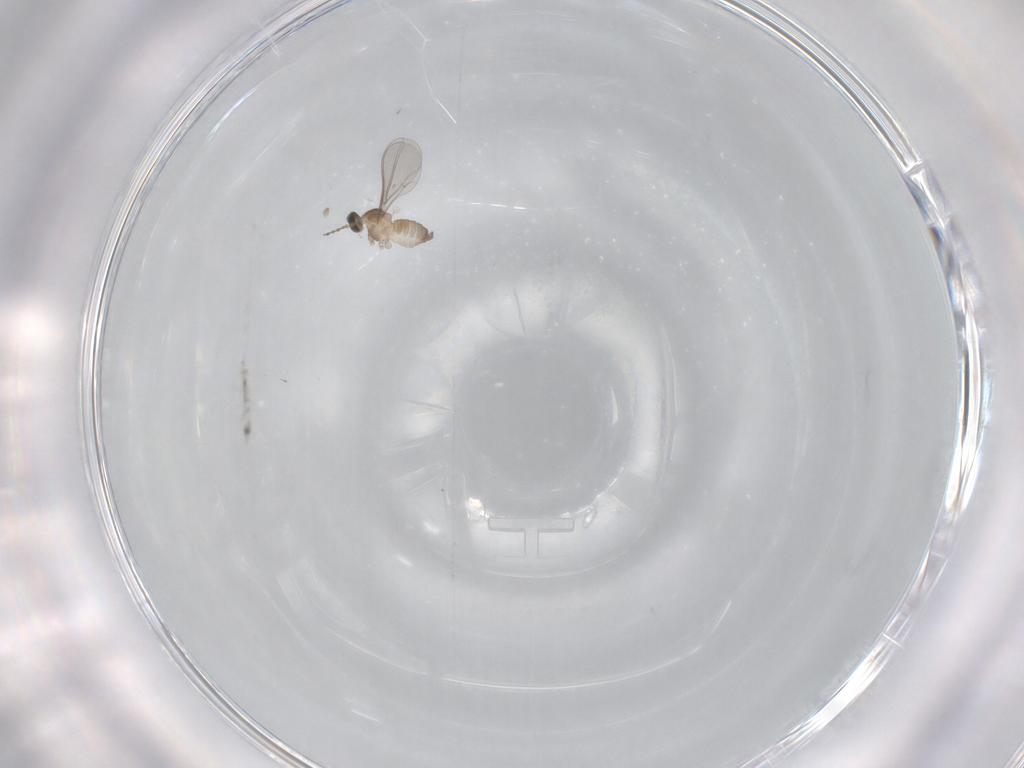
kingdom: Animalia
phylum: Arthropoda
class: Insecta
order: Diptera
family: Cecidomyiidae
